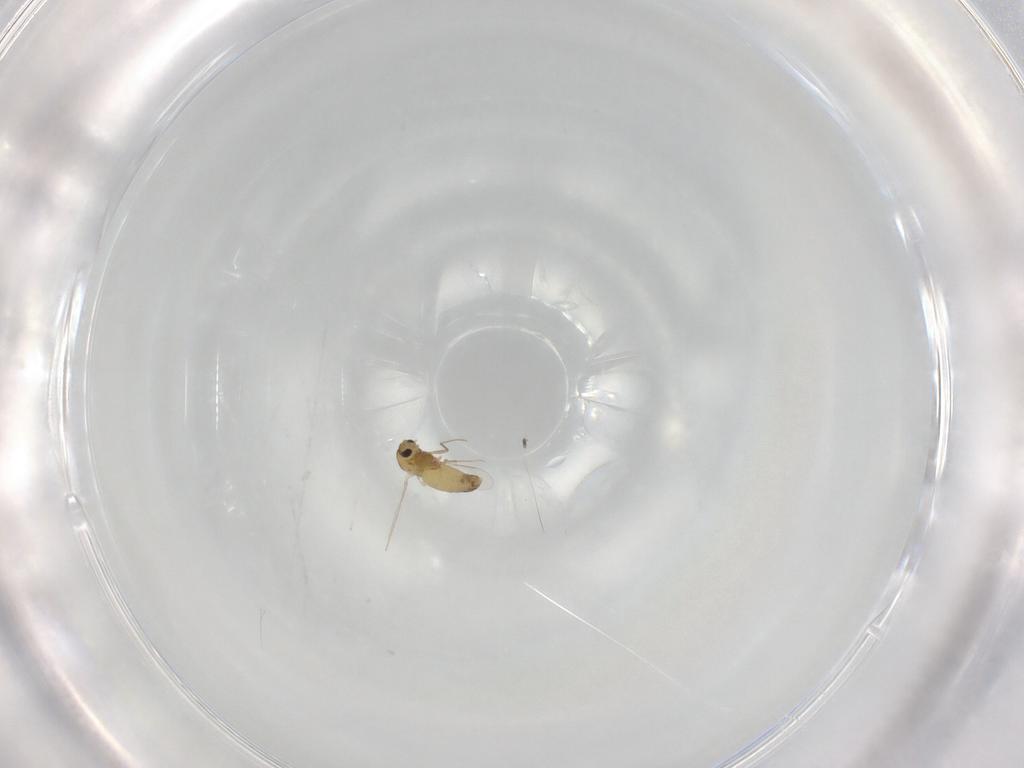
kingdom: Animalia
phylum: Arthropoda
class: Insecta
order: Diptera
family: Chironomidae
